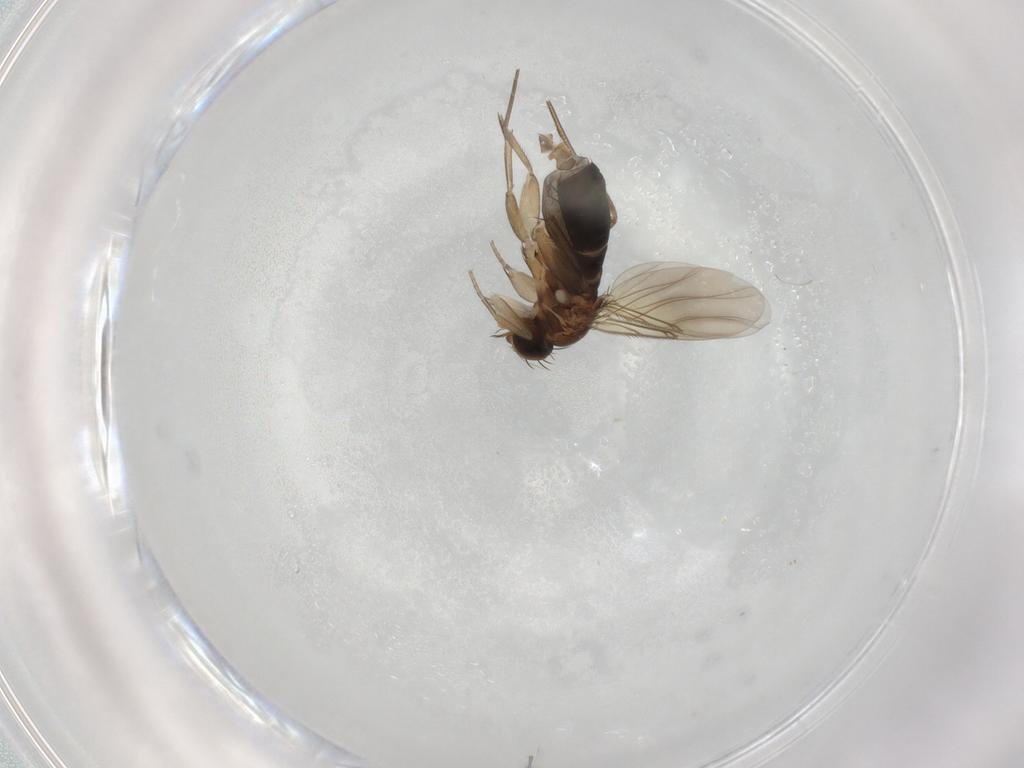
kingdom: Animalia
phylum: Arthropoda
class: Insecta
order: Diptera
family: Phoridae
